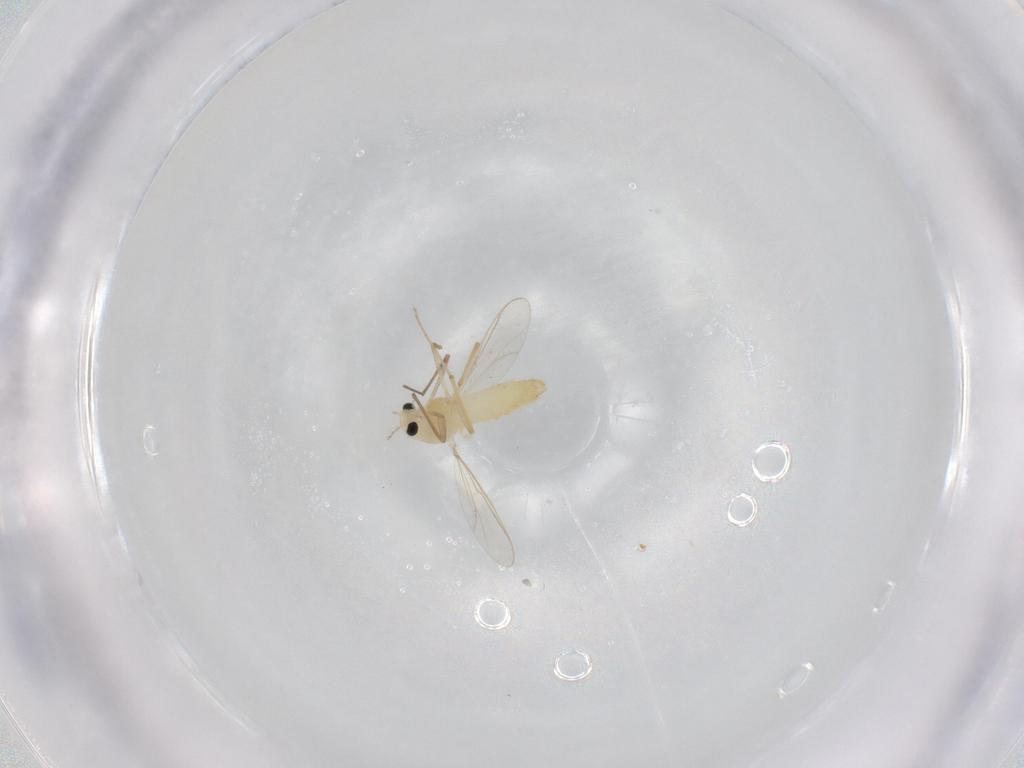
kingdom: Animalia
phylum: Arthropoda
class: Insecta
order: Diptera
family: Chironomidae
